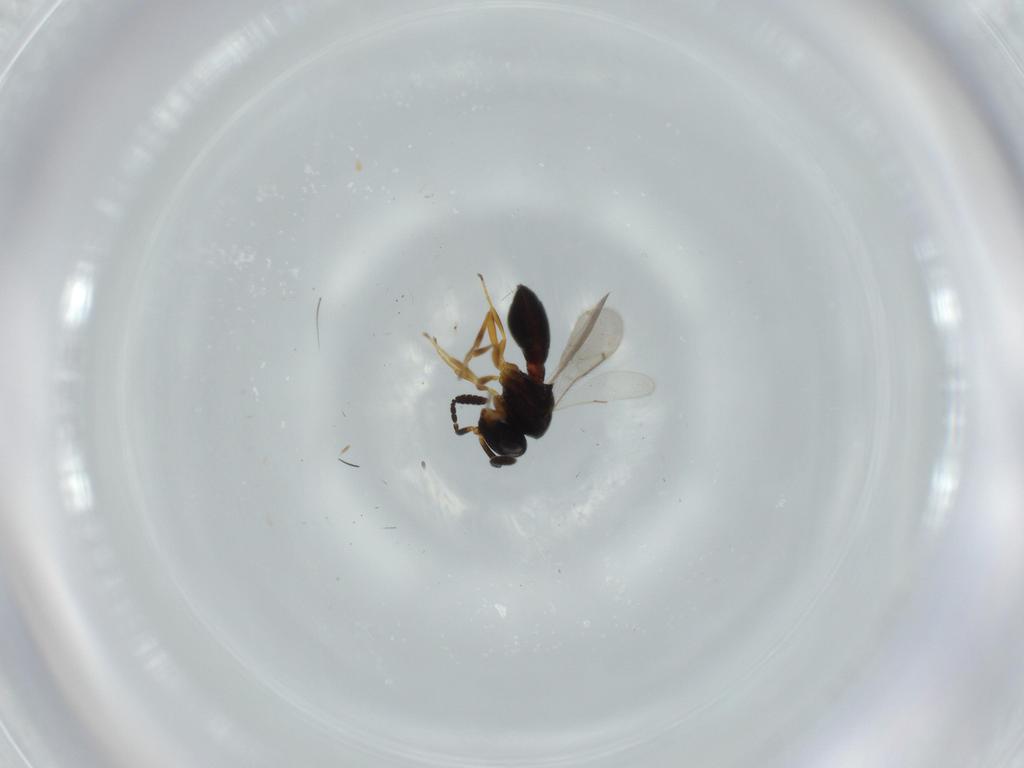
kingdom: Animalia
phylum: Arthropoda
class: Insecta
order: Hymenoptera
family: Scelionidae
